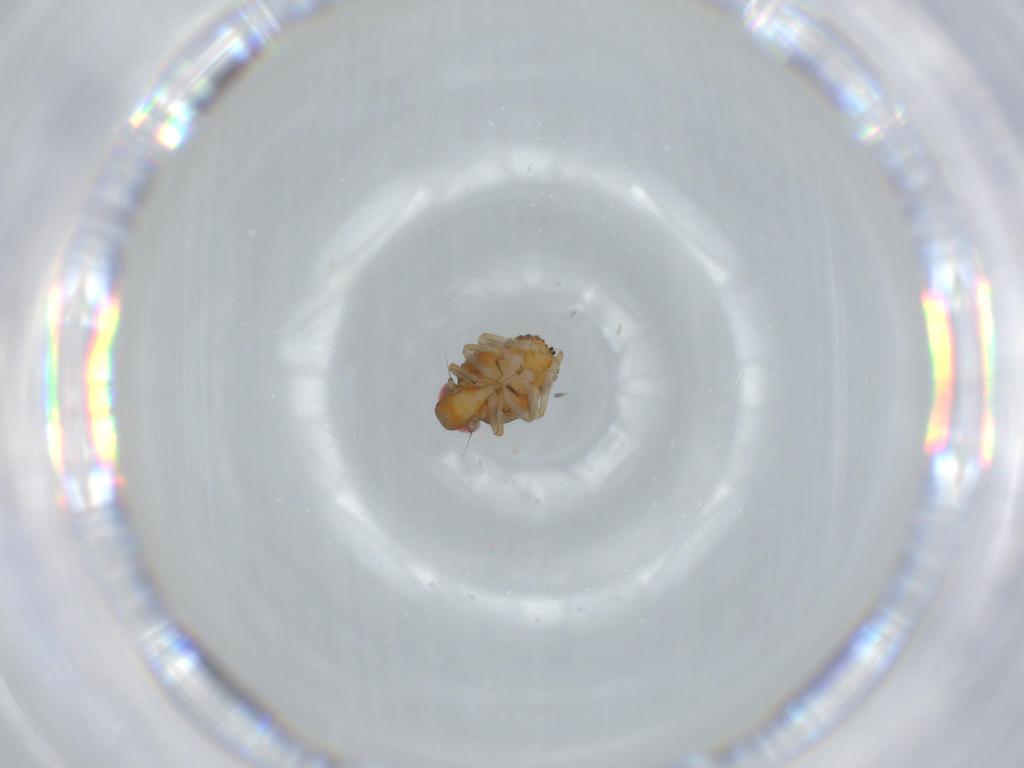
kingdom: Animalia
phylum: Arthropoda
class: Insecta
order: Hemiptera
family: Issidae
